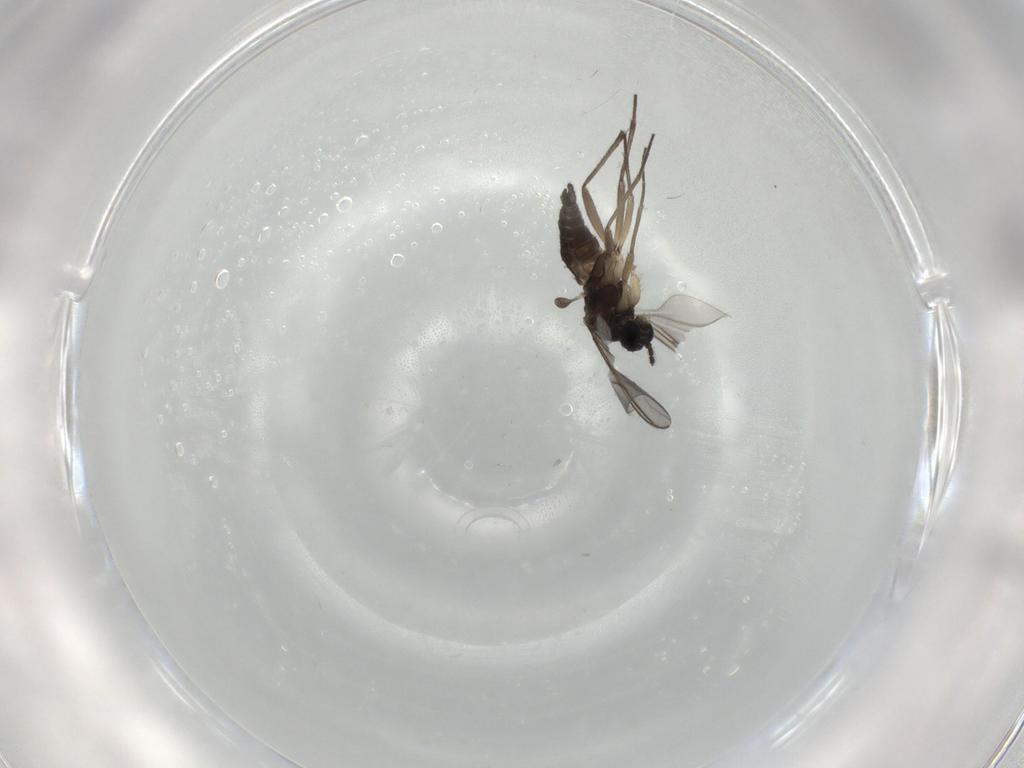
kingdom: Animalia
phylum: Arthropoda
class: Insecta
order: Diptera
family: Sciaridae
